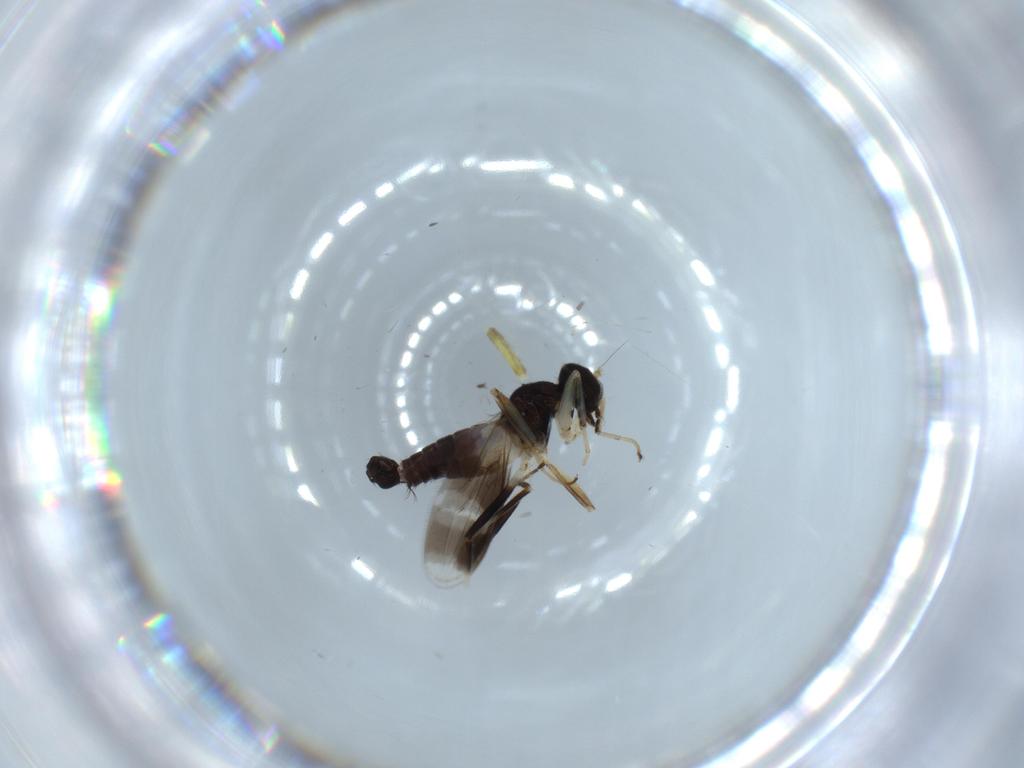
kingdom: Animalia
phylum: Arthropoda
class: Insecta
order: Diptera
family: Hybotidae
